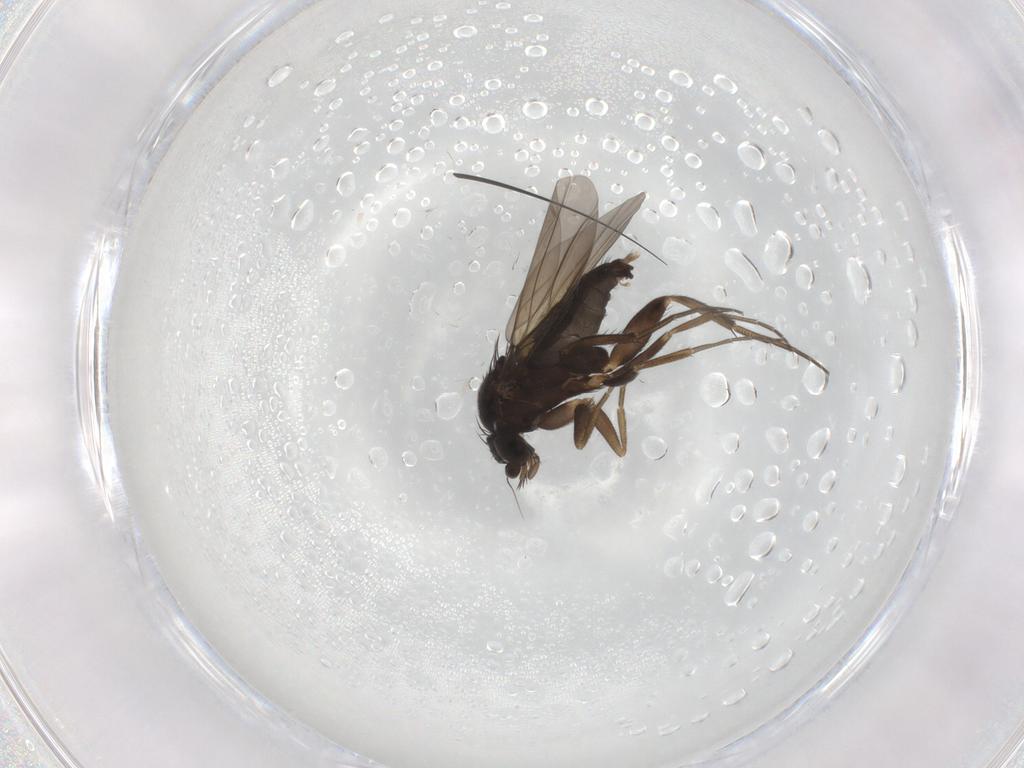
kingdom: Animalia
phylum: Arthropoda
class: Insecta
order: Diptera
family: Phoridae
